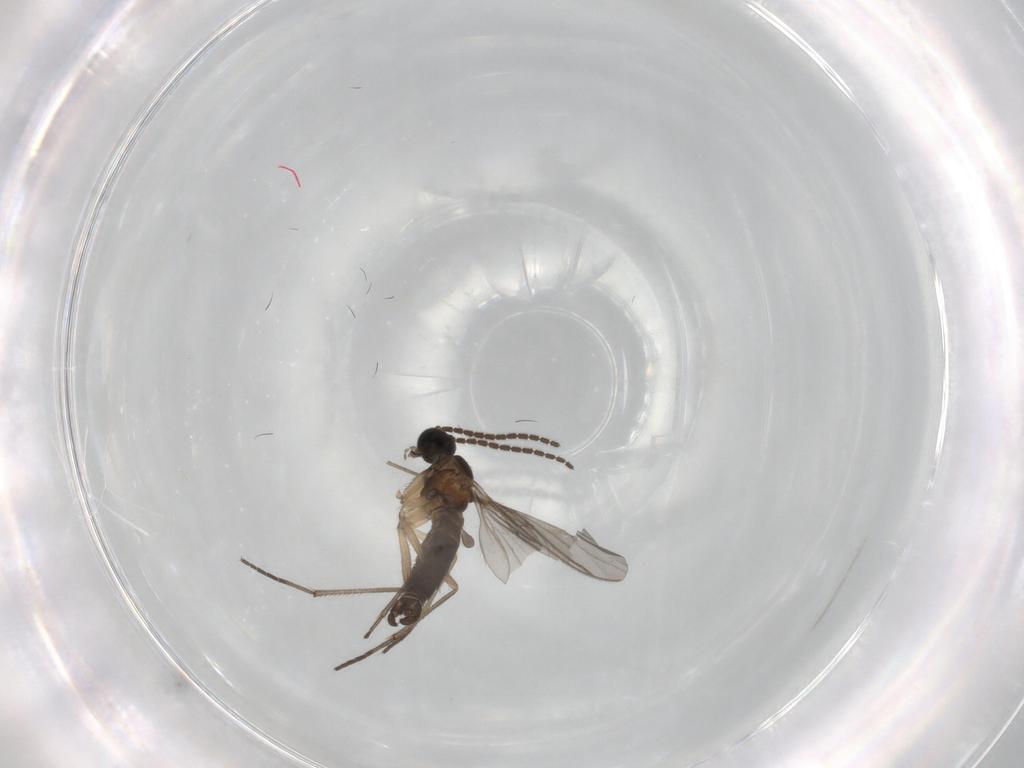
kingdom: Animalia
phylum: Arthropoda
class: Insecta
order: Diptera
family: Sciaridae
